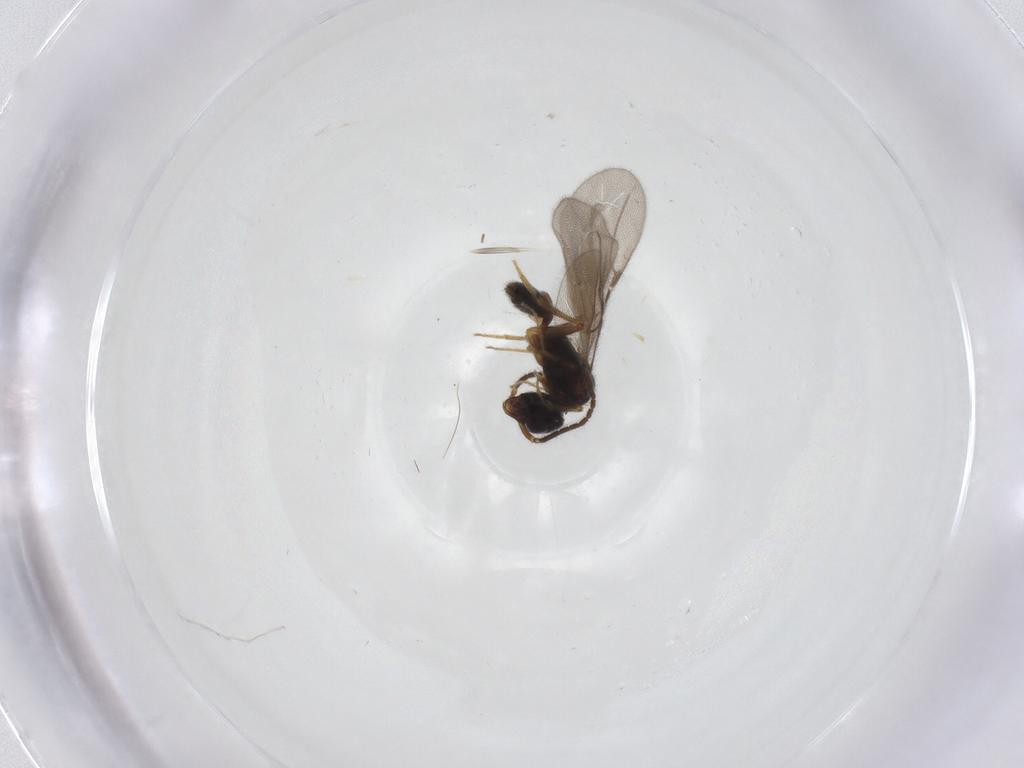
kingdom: Animalia
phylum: Arthropoda
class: Insecta
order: Hymenoptera
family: Bethylidae
